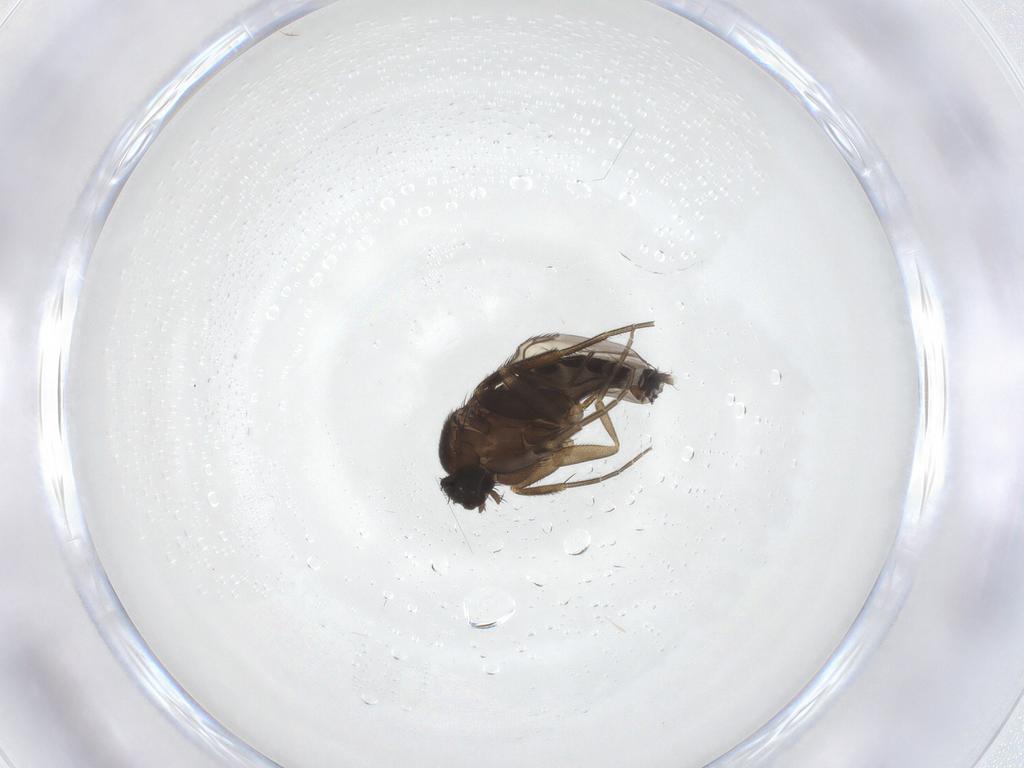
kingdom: Animalia
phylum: Arthropoda
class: Insecta
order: Diptera
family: Phoridae
